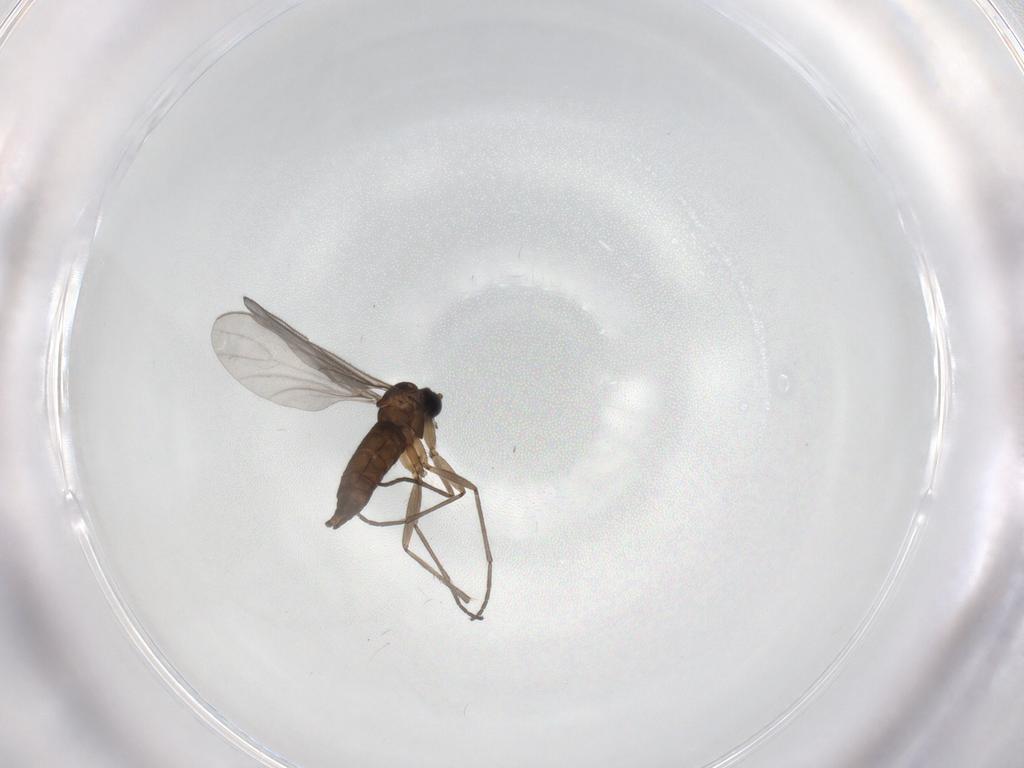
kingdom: Animalia
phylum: Arthropoda
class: Insecta
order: Diptera
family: Sciaridae
